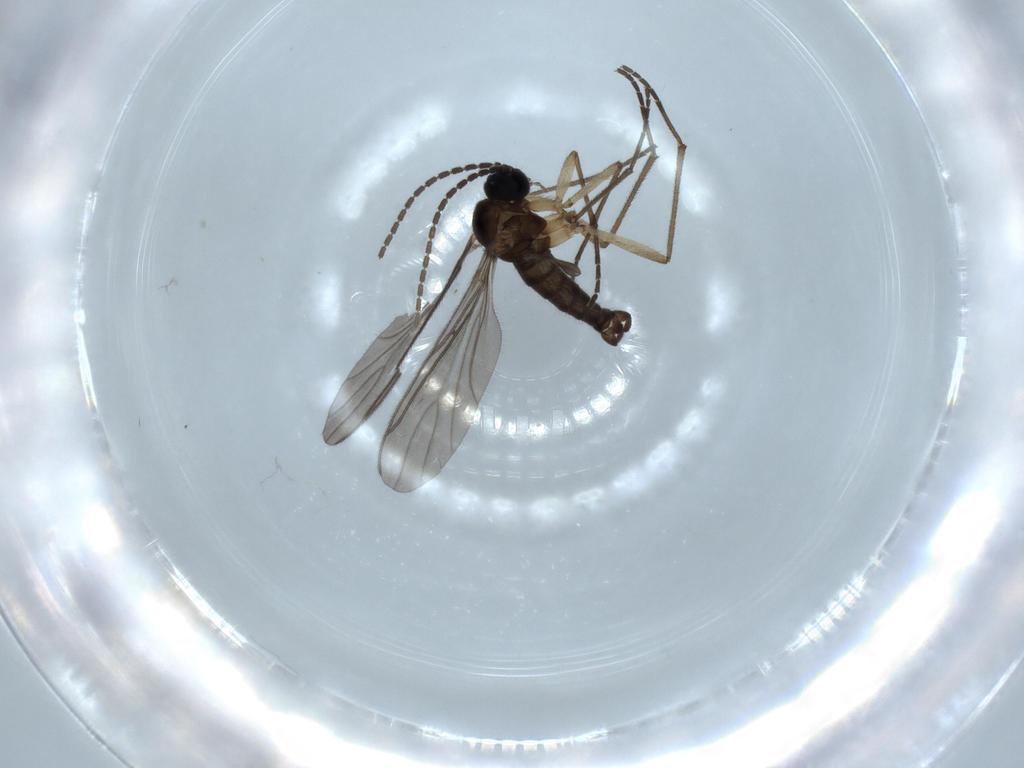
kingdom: Animalia
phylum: Arthropoda
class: Insecta
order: Diptera
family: Sciaridae
